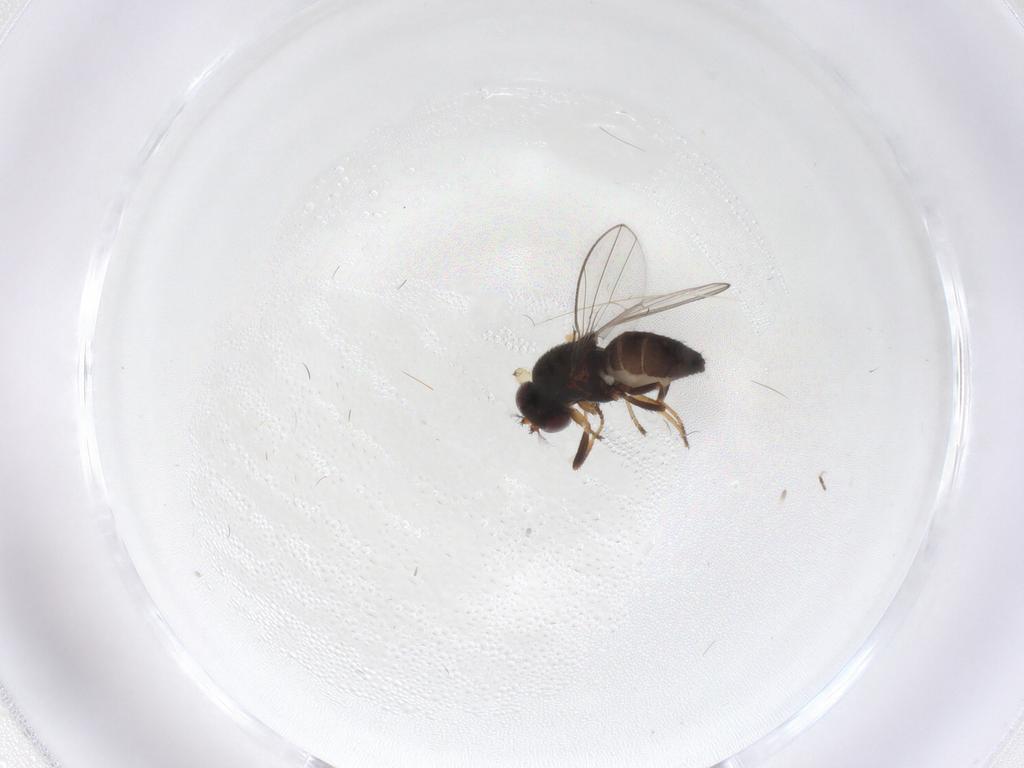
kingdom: Animalia
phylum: Arthropoda
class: Insecta
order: Diptera
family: Ephydridae
